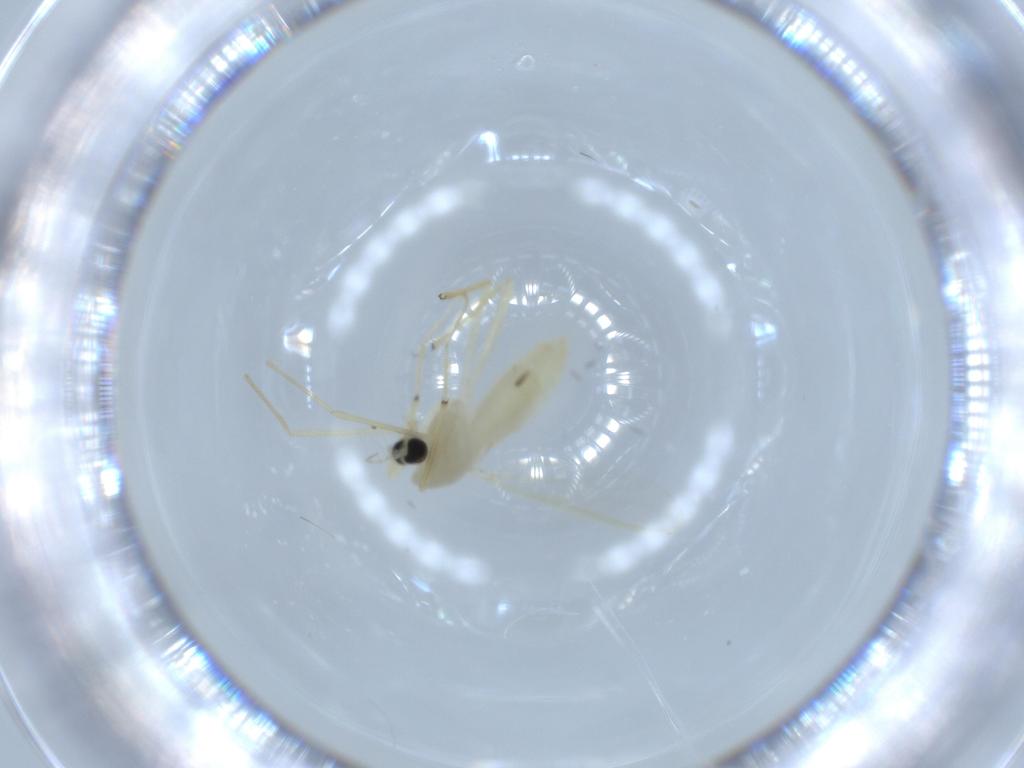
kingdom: Animalia
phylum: Arthropoda
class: Insecta
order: Diptera
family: Chironomidae
